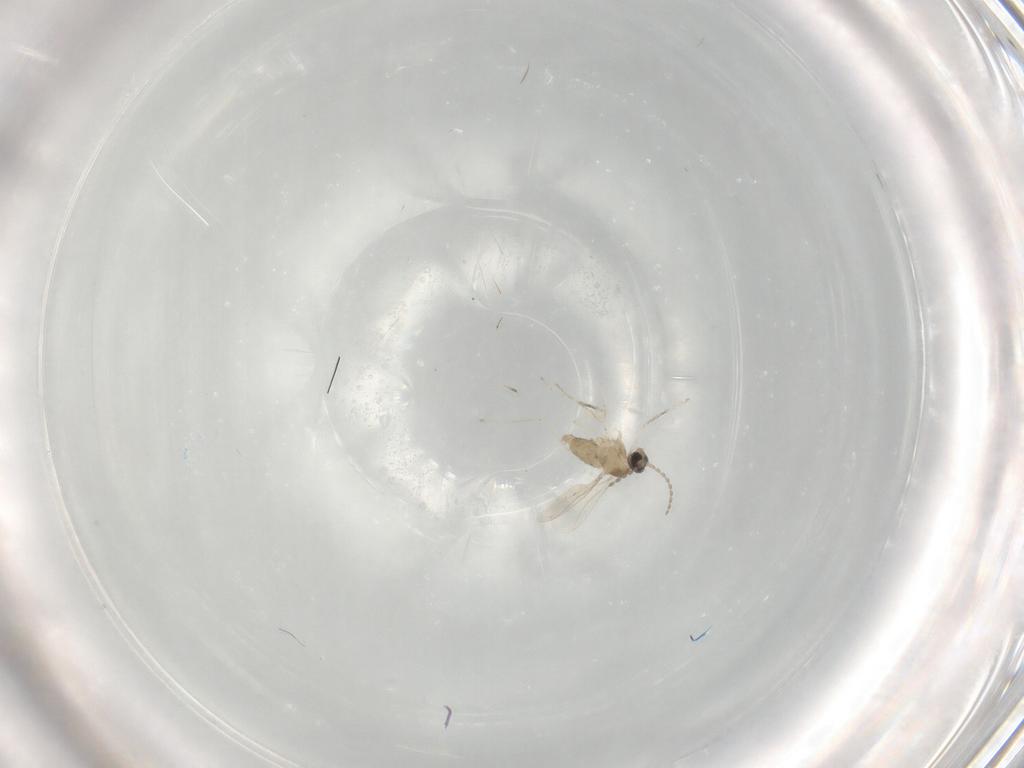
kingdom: Animalia
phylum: Arthropoda
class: Insecta
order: Diptera
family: Cecidomyiidae
